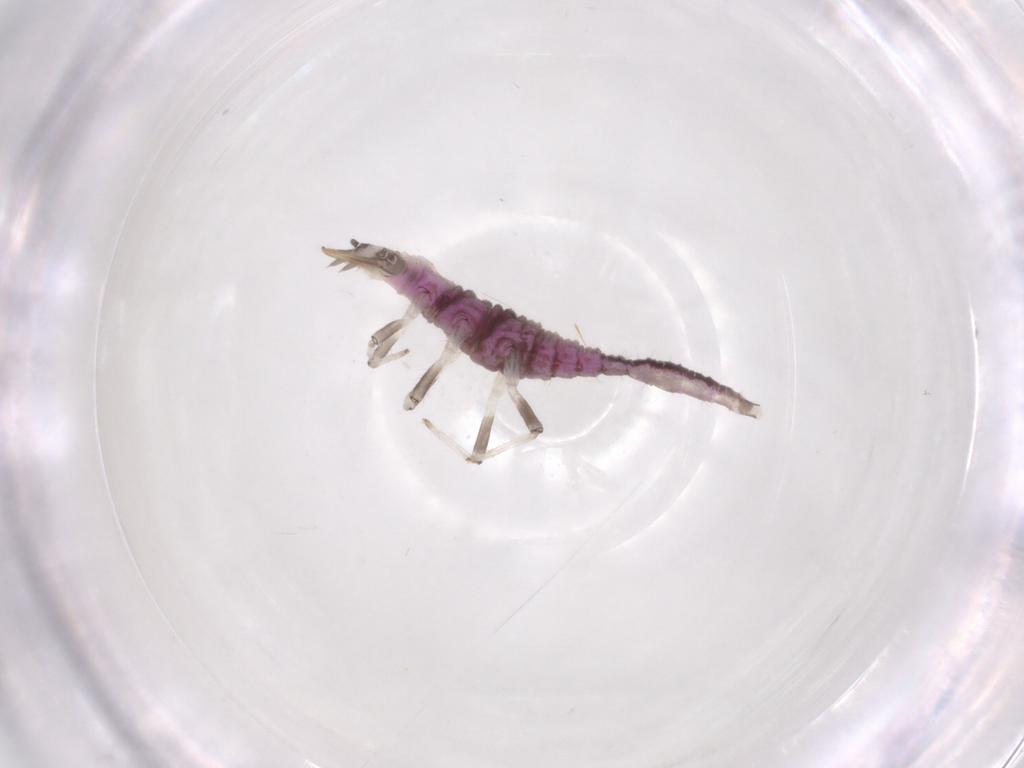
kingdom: Animalia
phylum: Arthropoda
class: Insecta
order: Neuroptera
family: Hemerobiidae
